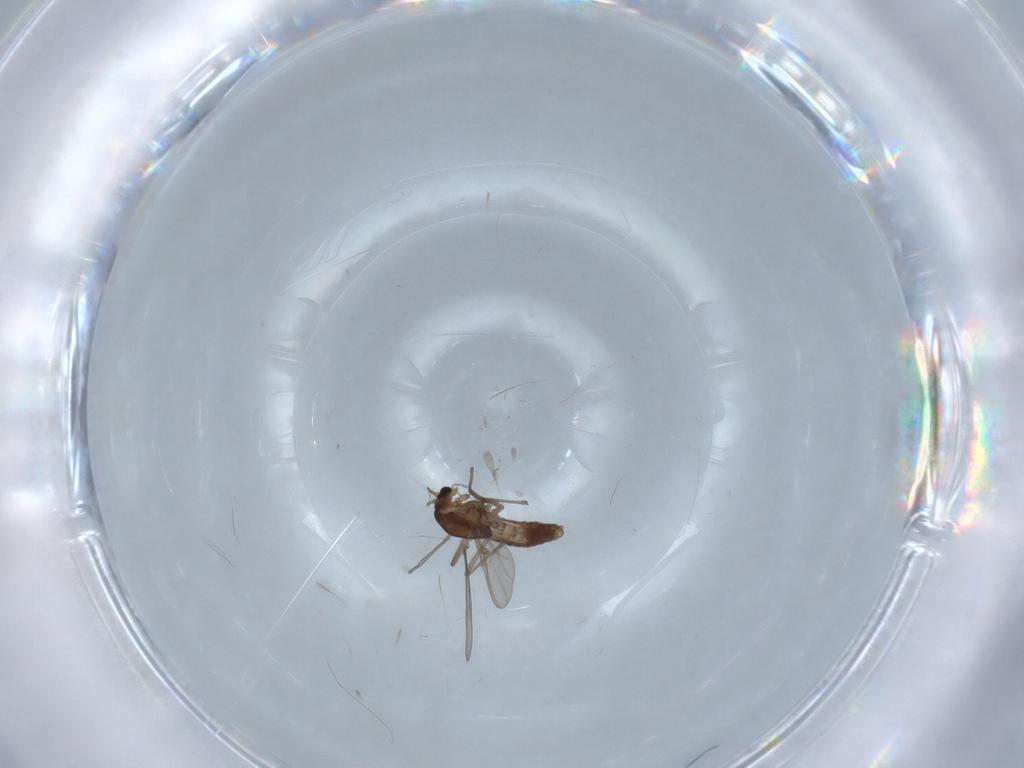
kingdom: Animalia
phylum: Arthropoda
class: Insecta
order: Diptera
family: Chironomidae
